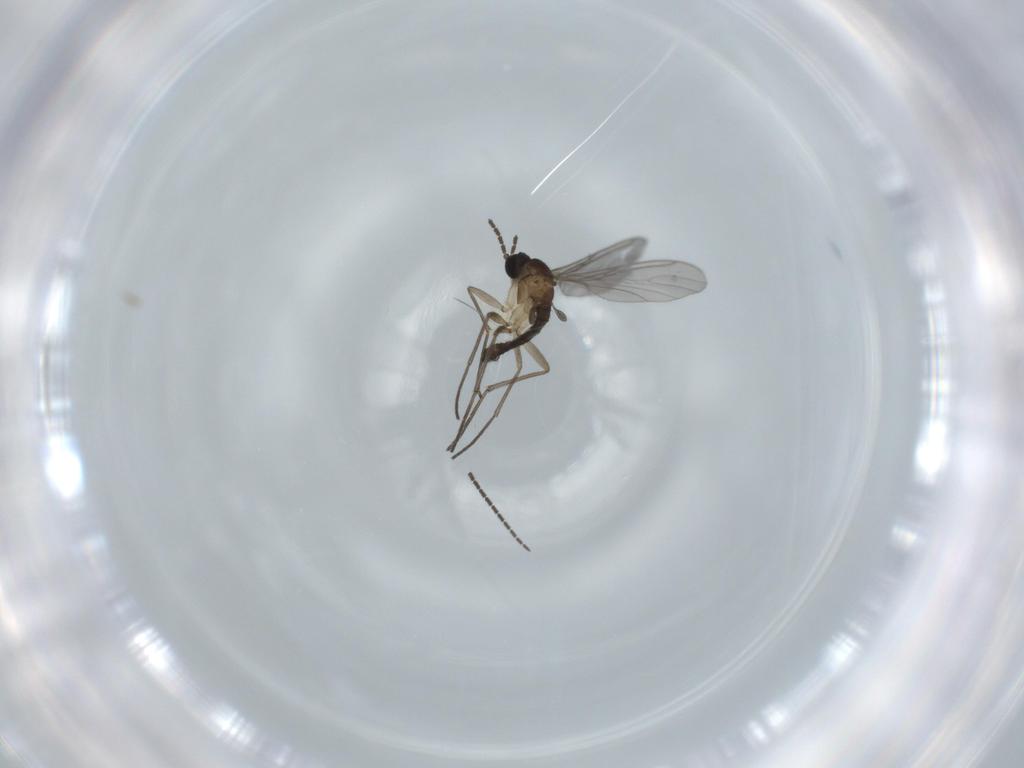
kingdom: Animalia
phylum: Arthropoda
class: Insecta
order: Diptera
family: Sciaridae
